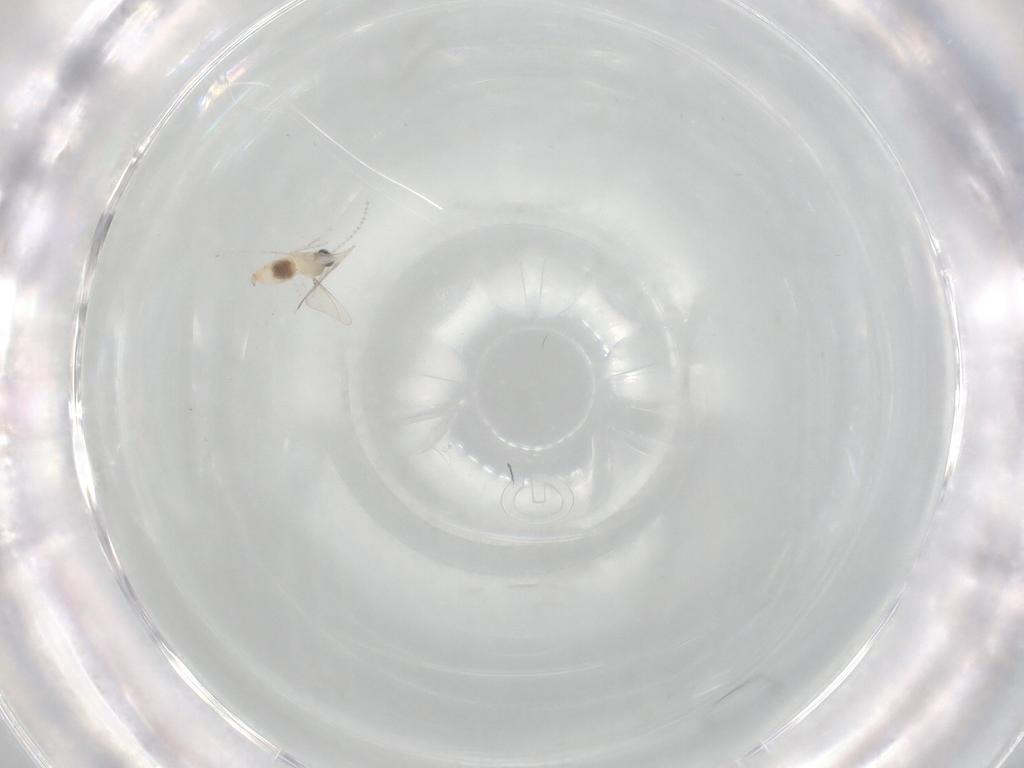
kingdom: Animalia
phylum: Arthropoda
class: Insecta
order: Diptera
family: Cecidomyiidae
